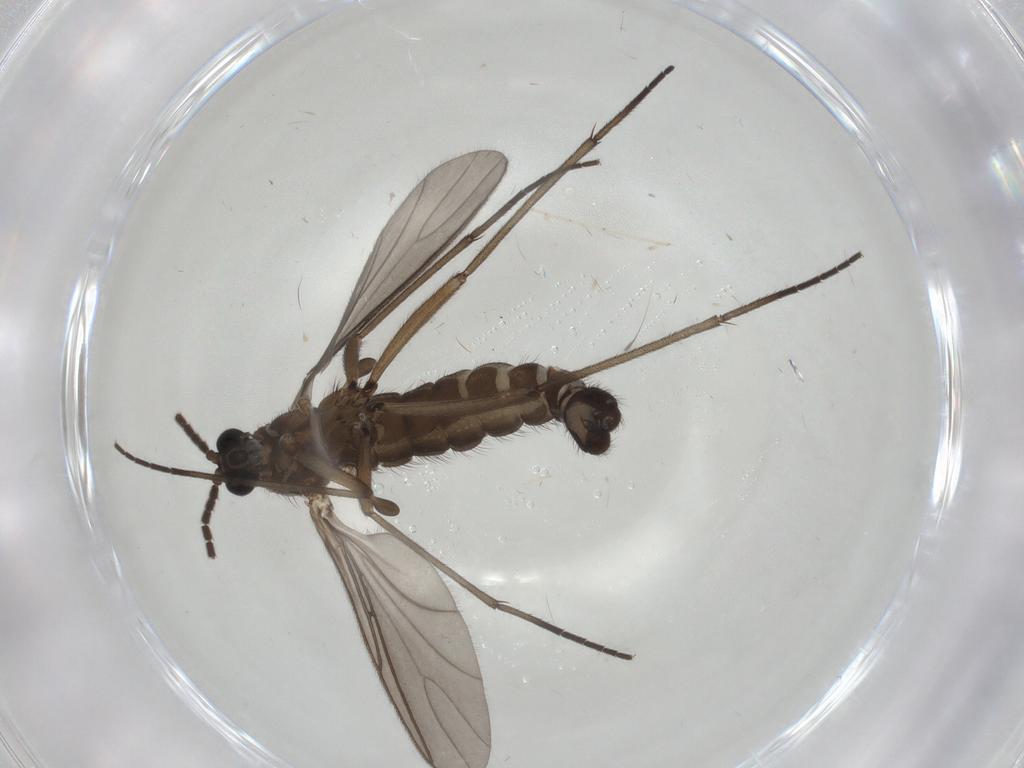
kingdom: Animalia
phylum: Arthropoda
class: Insecta
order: Diptera
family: Sciaridae
